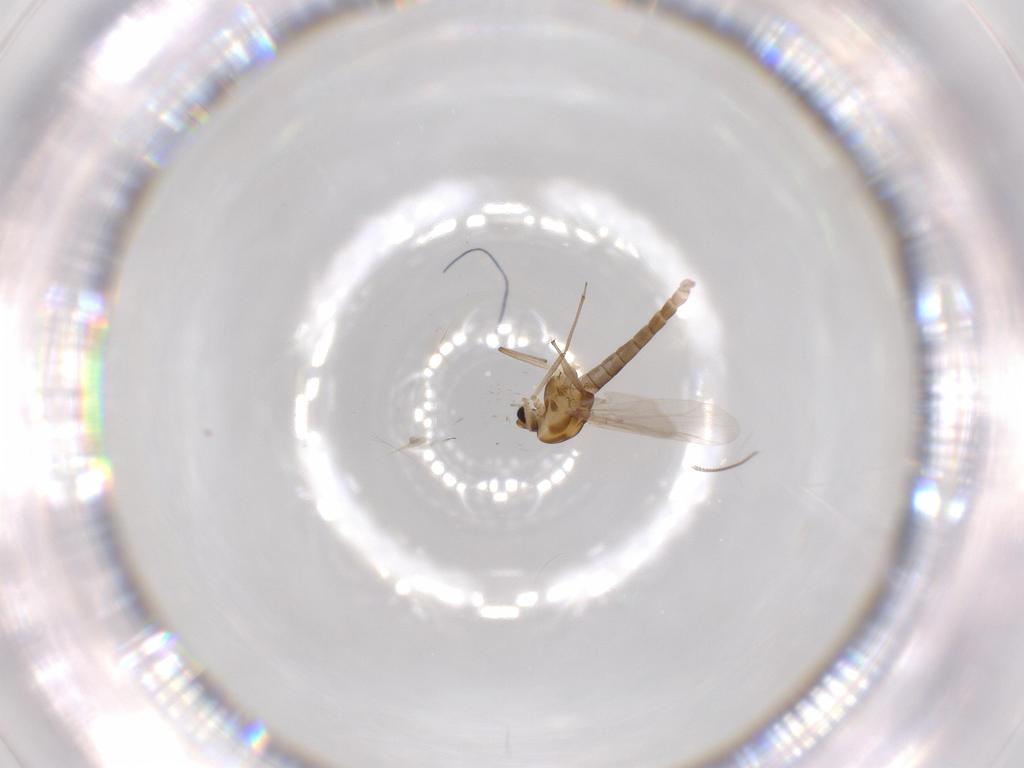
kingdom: Animalia
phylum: Arthropoda
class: Insecta
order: Diptera
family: Chironomidae
